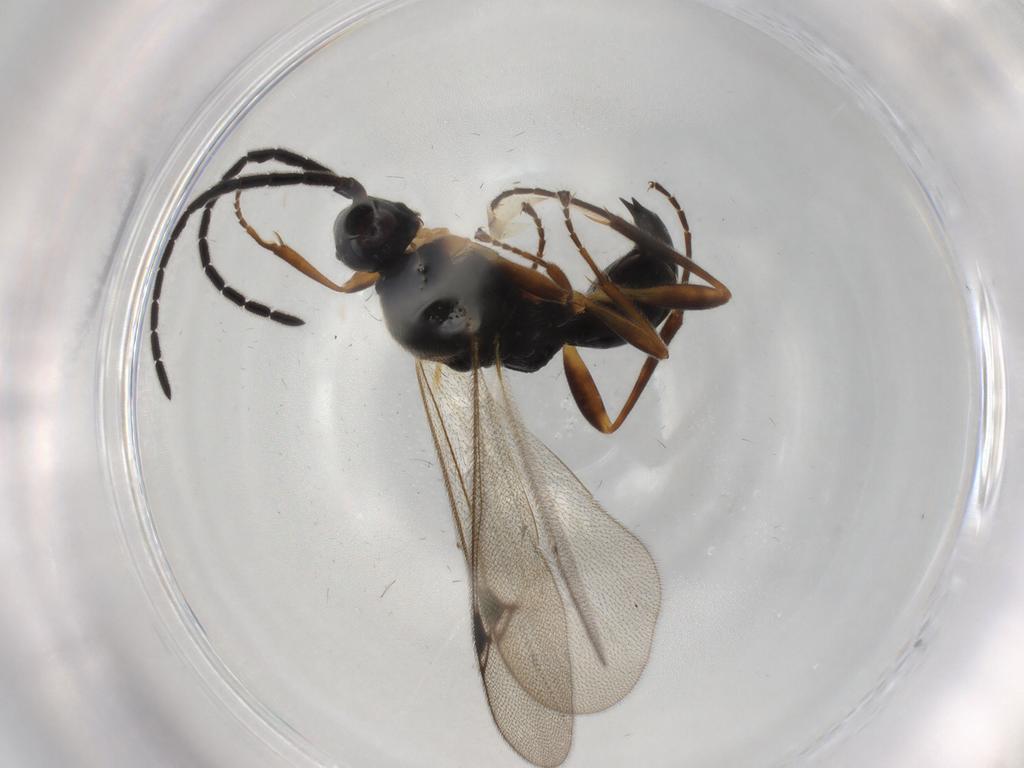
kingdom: Animalia
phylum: Arthropoda
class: Insecta
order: Hymenoptera
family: Proctotrupidae
